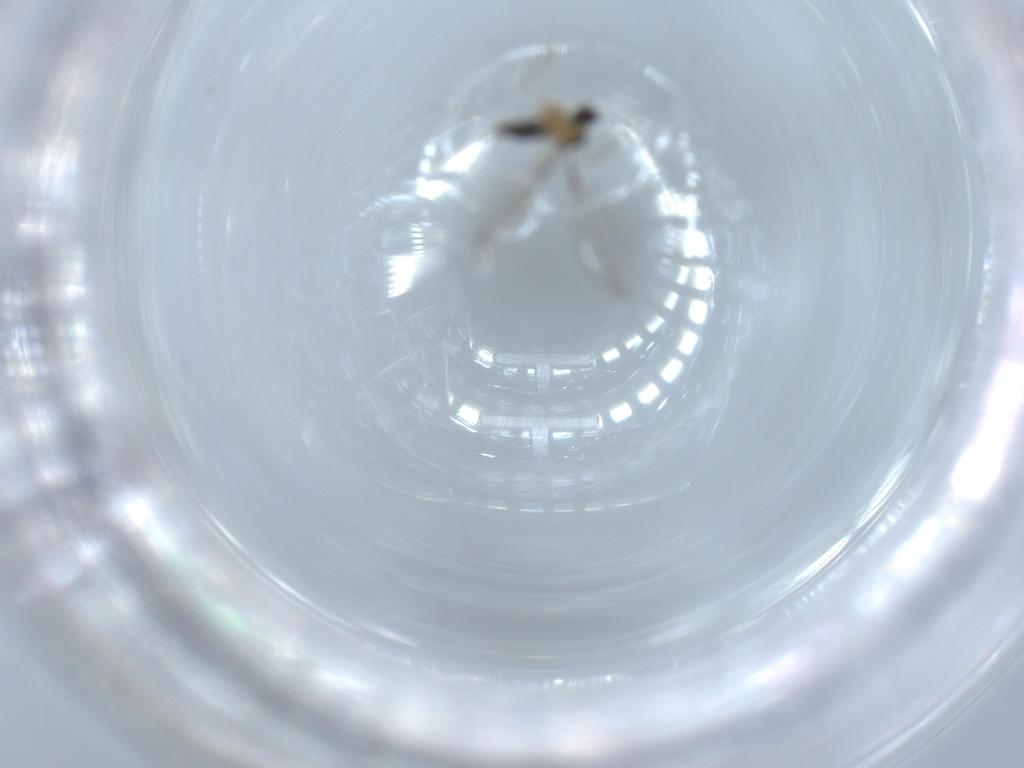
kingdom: Animalia
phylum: Arthropoda
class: Insecta
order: Diptera
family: Cecidomyiidae
